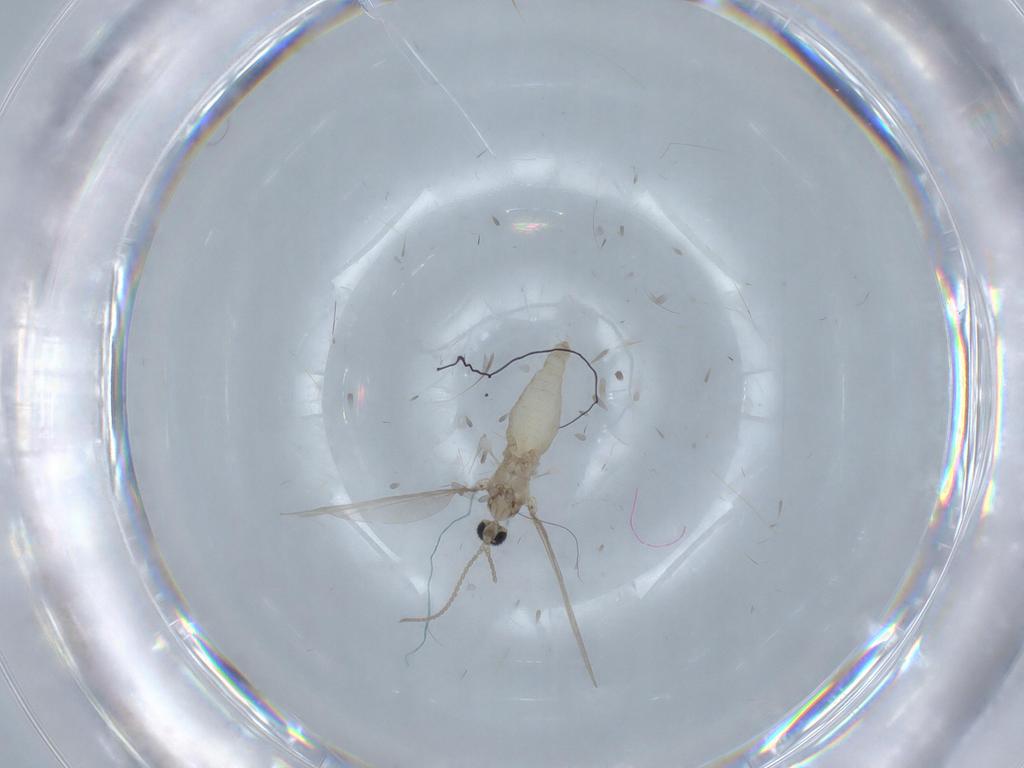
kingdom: Animalia
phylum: Arthropoda
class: Insecta
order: Diptera
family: Cecidomyiidae
